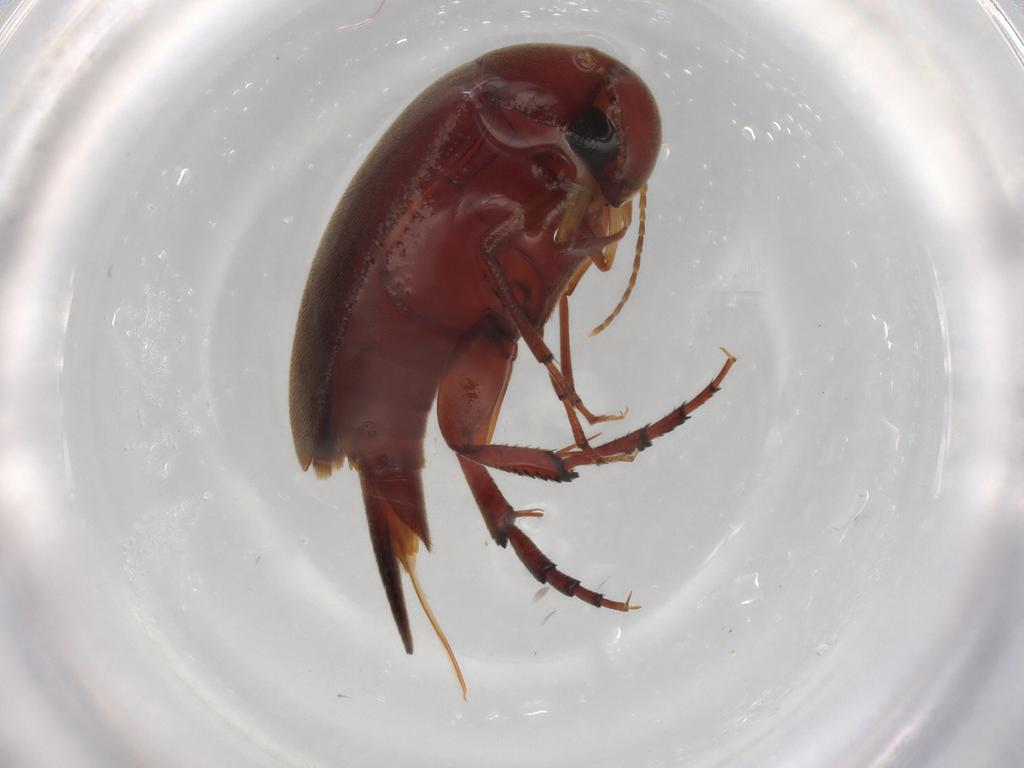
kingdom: Animalia
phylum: Arthropoda
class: Insecta
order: Coleoptera
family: Mordellidae
